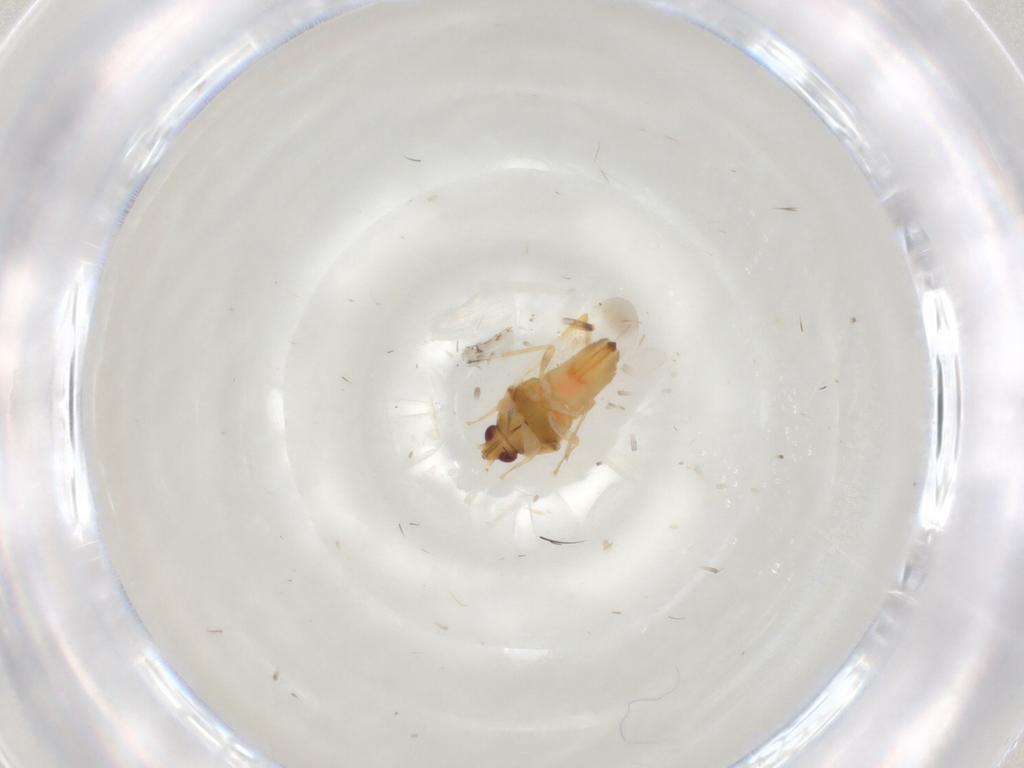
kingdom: Animalia
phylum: Arthropoda
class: Insecta
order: Hemiptera
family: Anthocoridae
